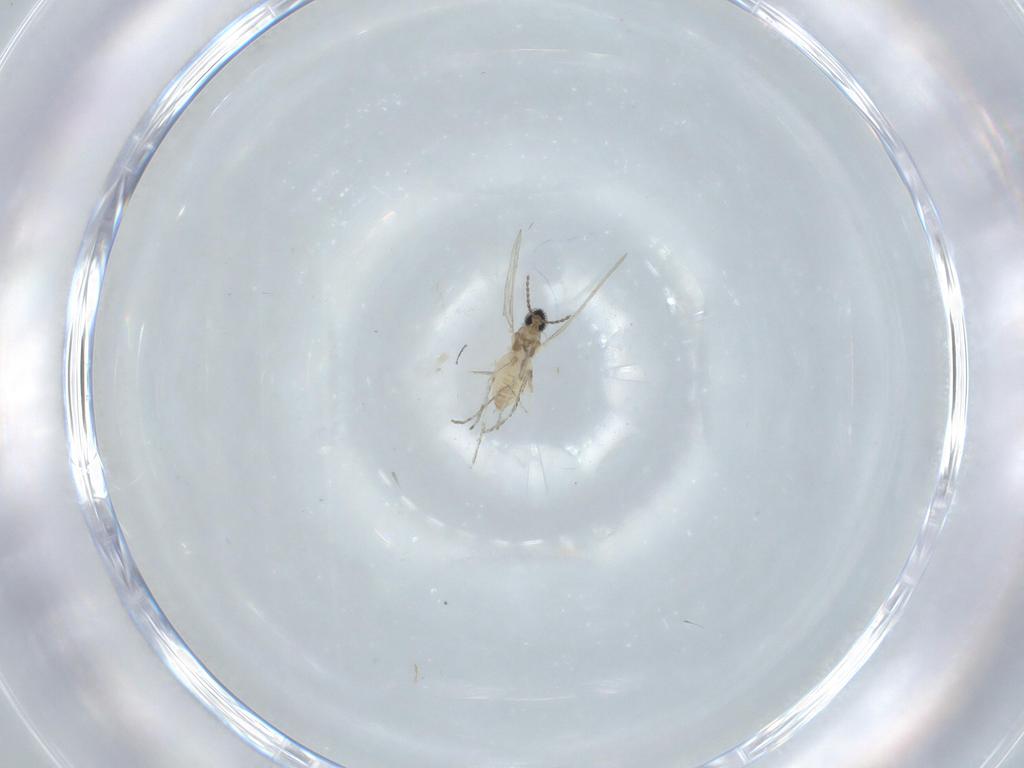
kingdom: Animalia
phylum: Arthropoda
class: Insecta
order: Diptera
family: Cecidomyiidae
